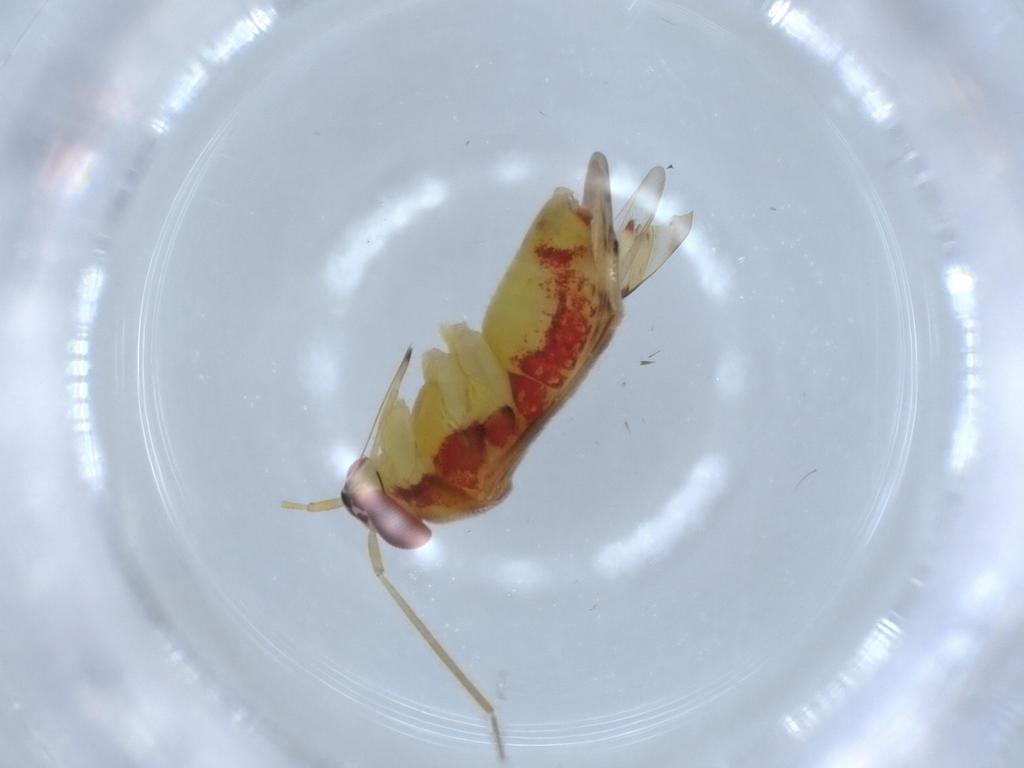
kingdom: Animalia
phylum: Arthropoda
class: Insecta
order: Hemiptera
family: Miridae
